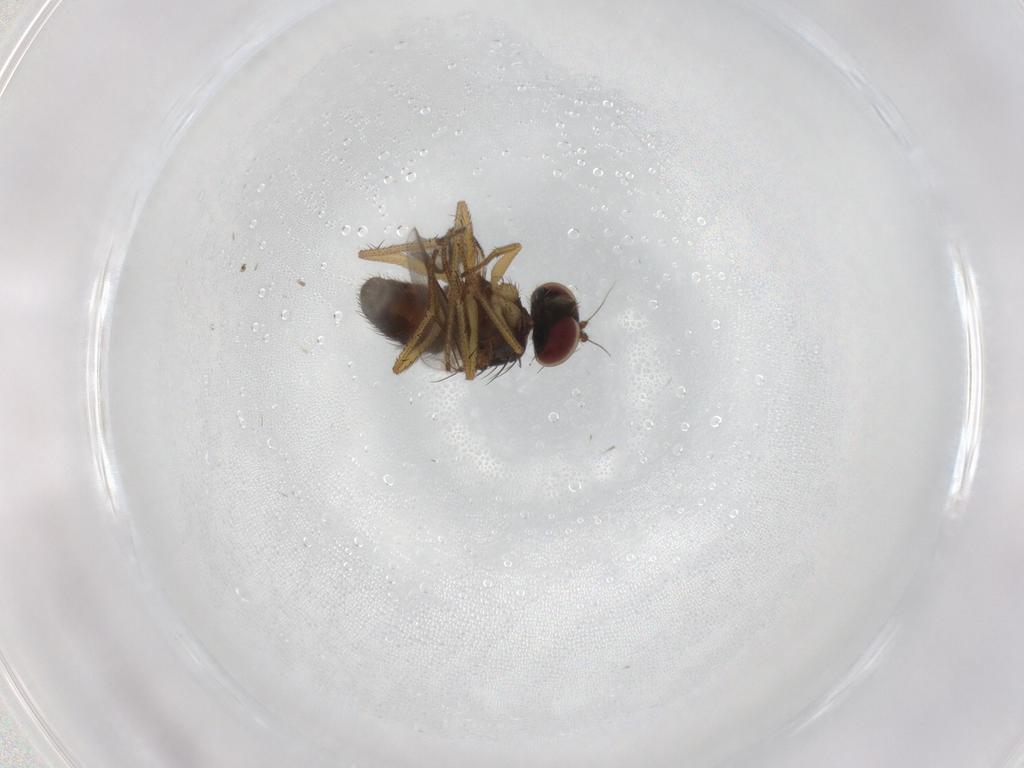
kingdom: Animalia
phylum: Arthropoda
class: Insecta
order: Diptera
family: Dolichopodidae
